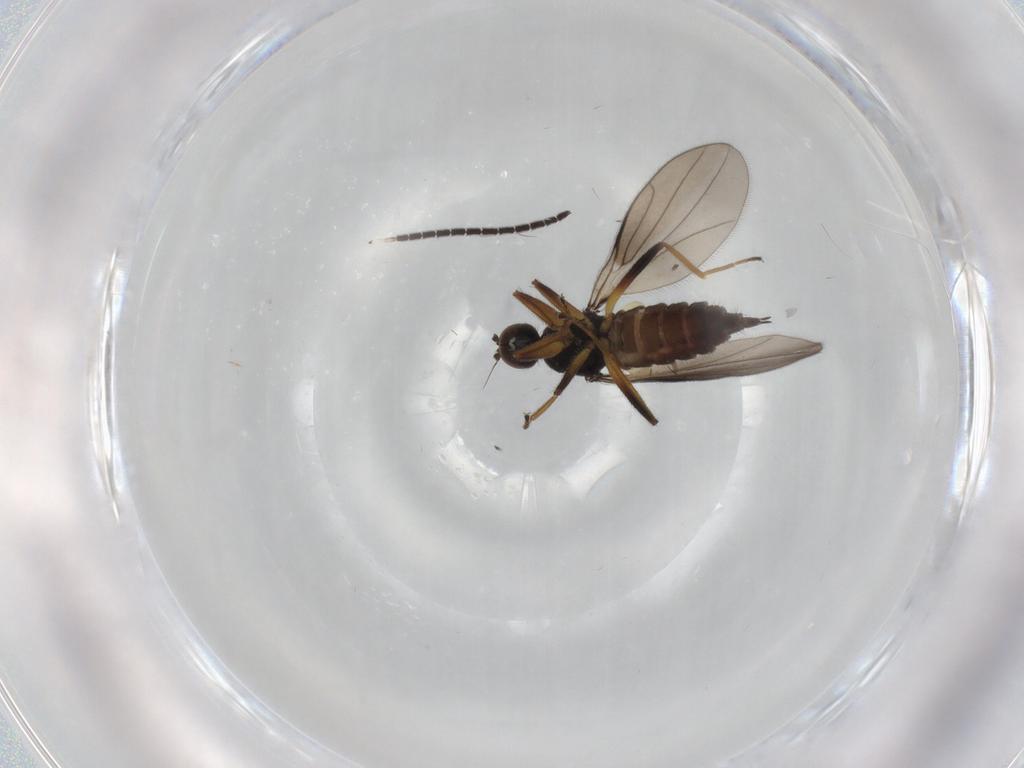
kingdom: Animalia
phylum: Arthropoda
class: Insecta
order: Diptera
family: Hybotidae
